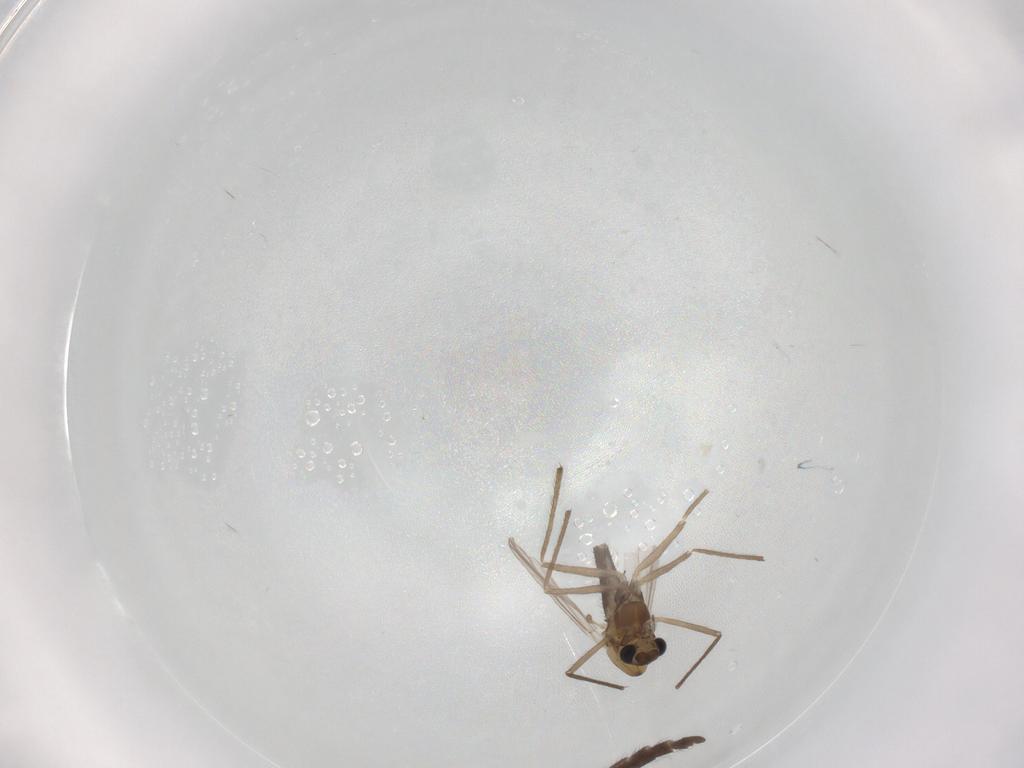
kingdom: Animalia
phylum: Arthropoda
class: Insecta
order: Diptera
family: Chironomidae
